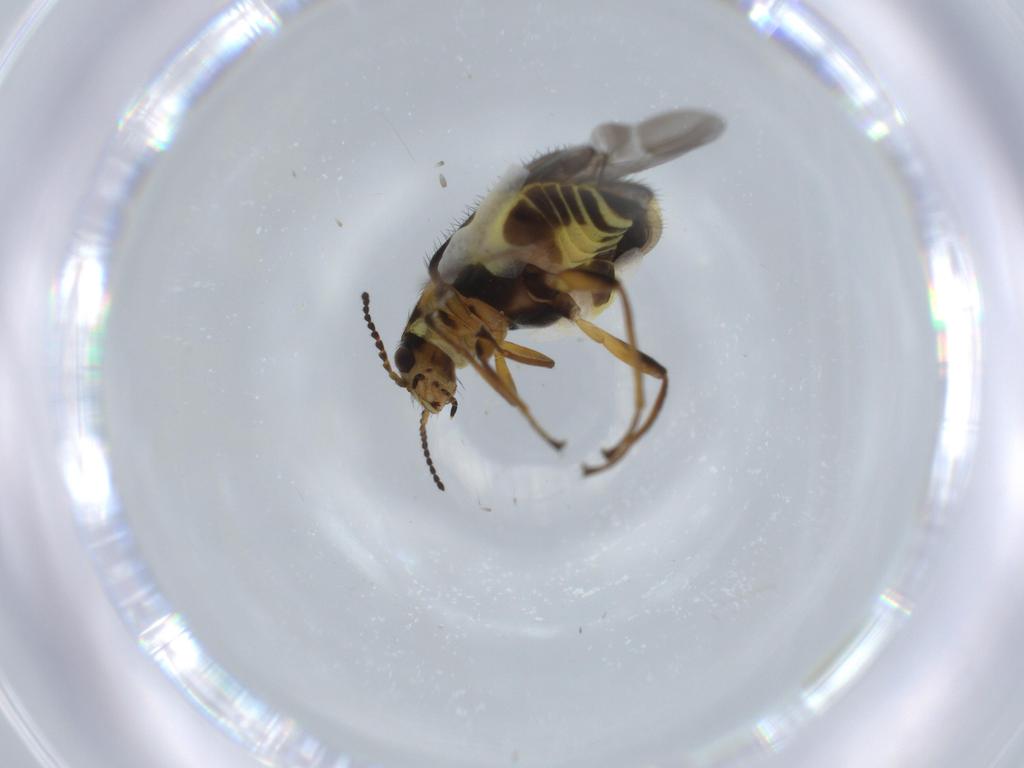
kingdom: Animalia
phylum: Arthropoda
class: Insecta
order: Coleoptera
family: Melyridae
